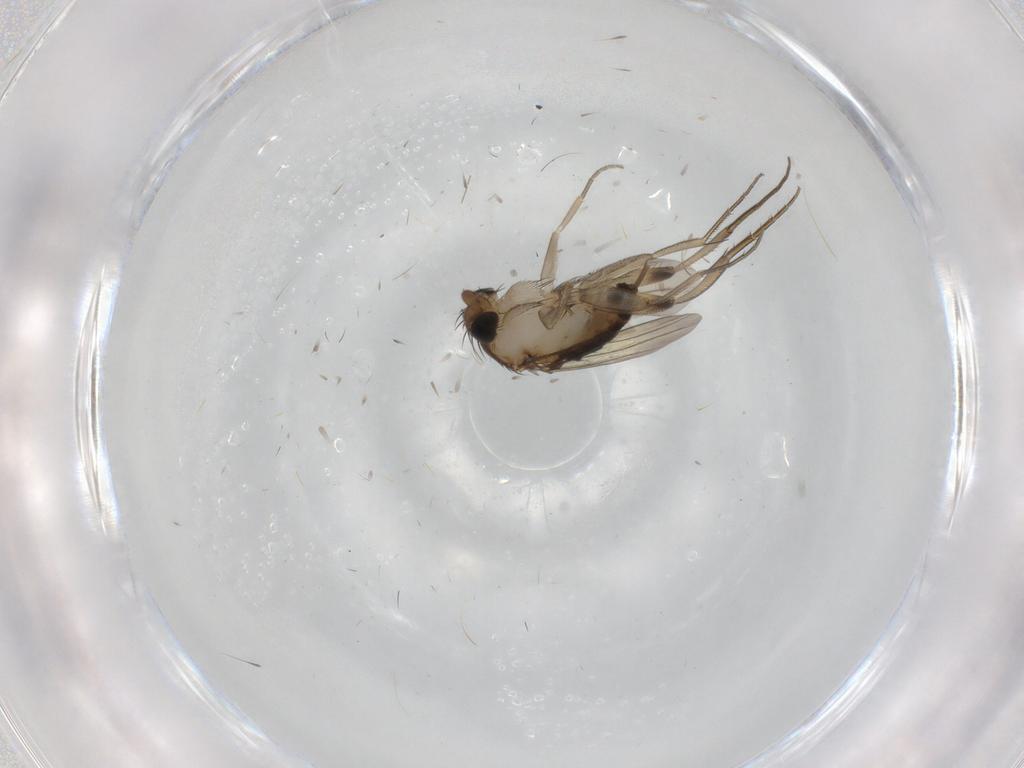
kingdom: Animalia
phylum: Arthropoda
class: Insecta
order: Diptera
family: Phoridae
